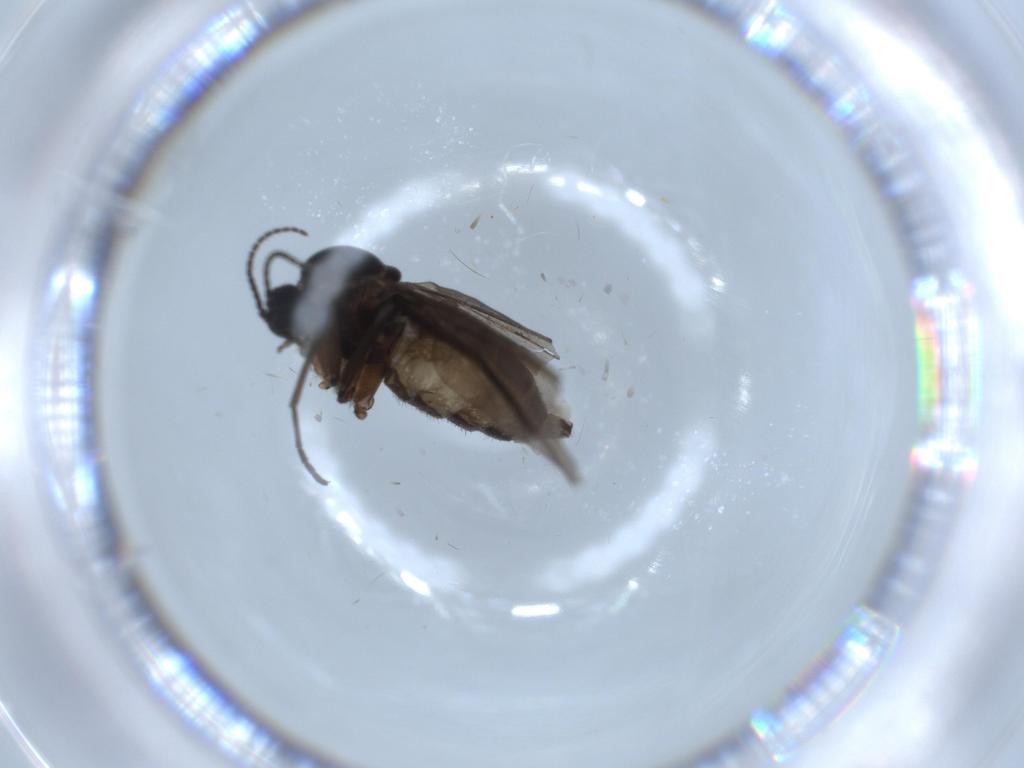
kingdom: Animalia
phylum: Arthropoda
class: Insecta
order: Diptera
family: Sciaridae
